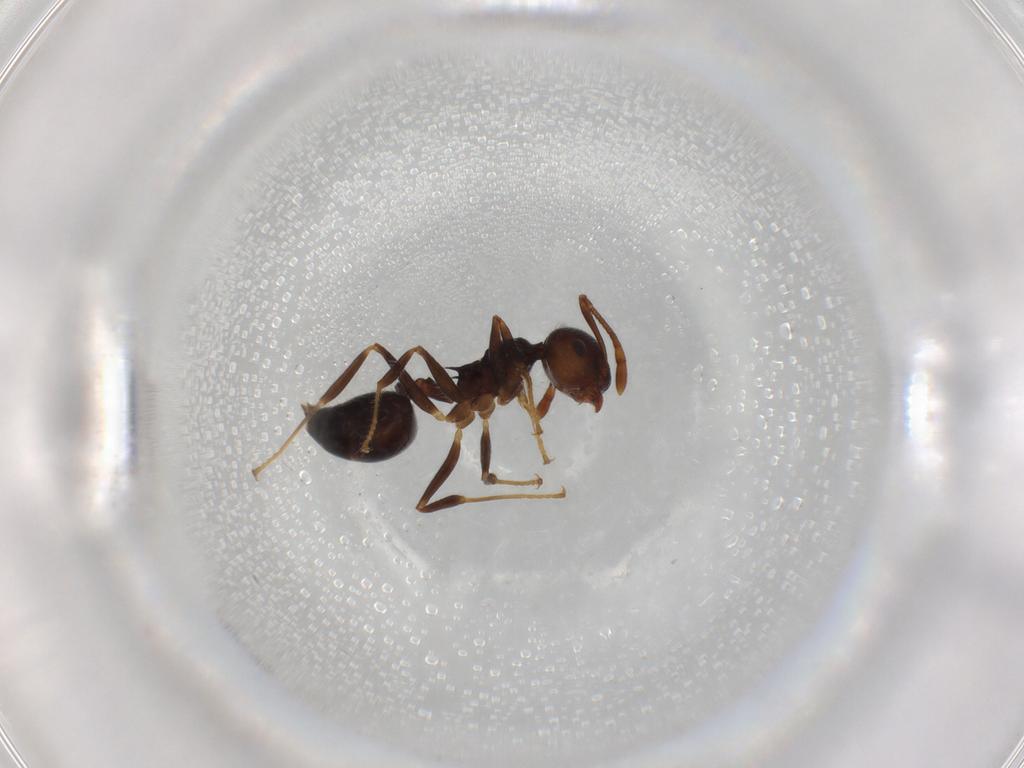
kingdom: Animalia
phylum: Arthropoda
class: Insecta
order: Hymenoptera
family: Formicidae
